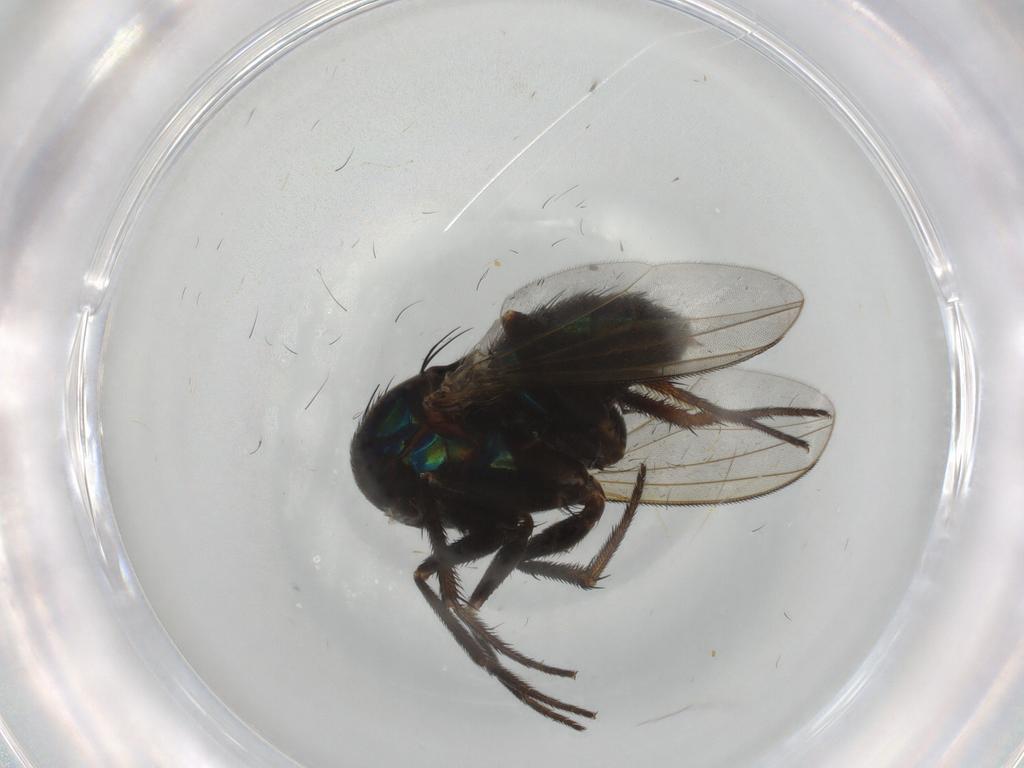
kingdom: Animalia
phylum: Arthropoda
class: Insecta
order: Diptera
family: Dolichopodidae
